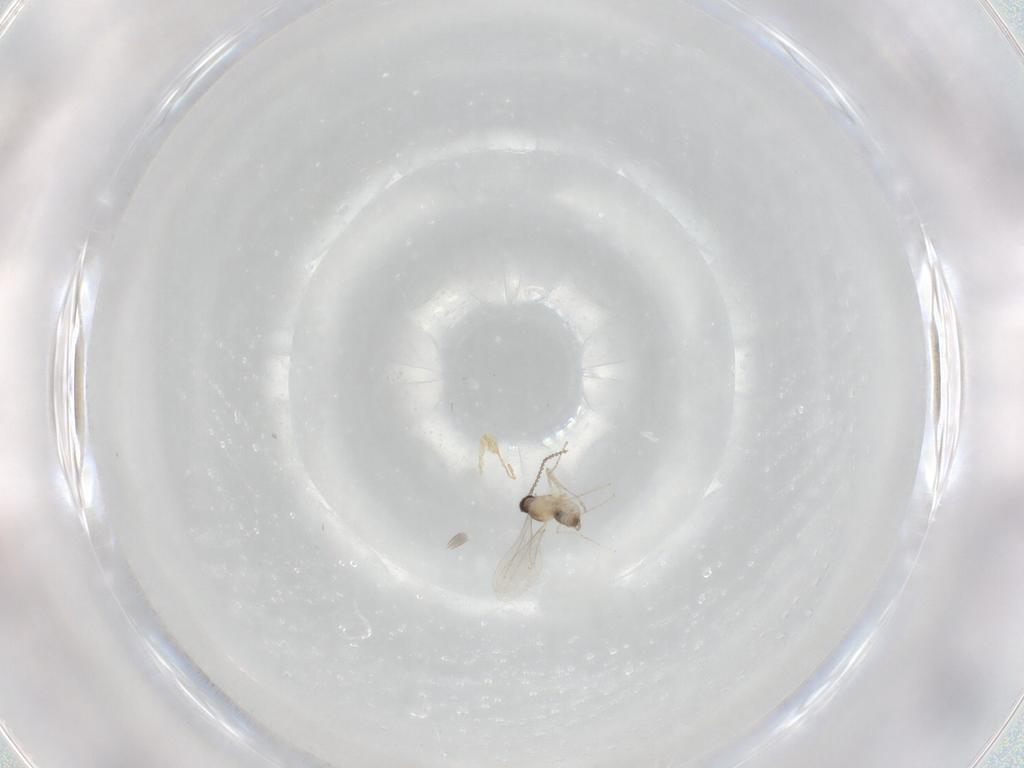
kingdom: Animalia
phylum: Arthropoda
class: Insecta
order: Diptera
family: Cecidomyiidae
